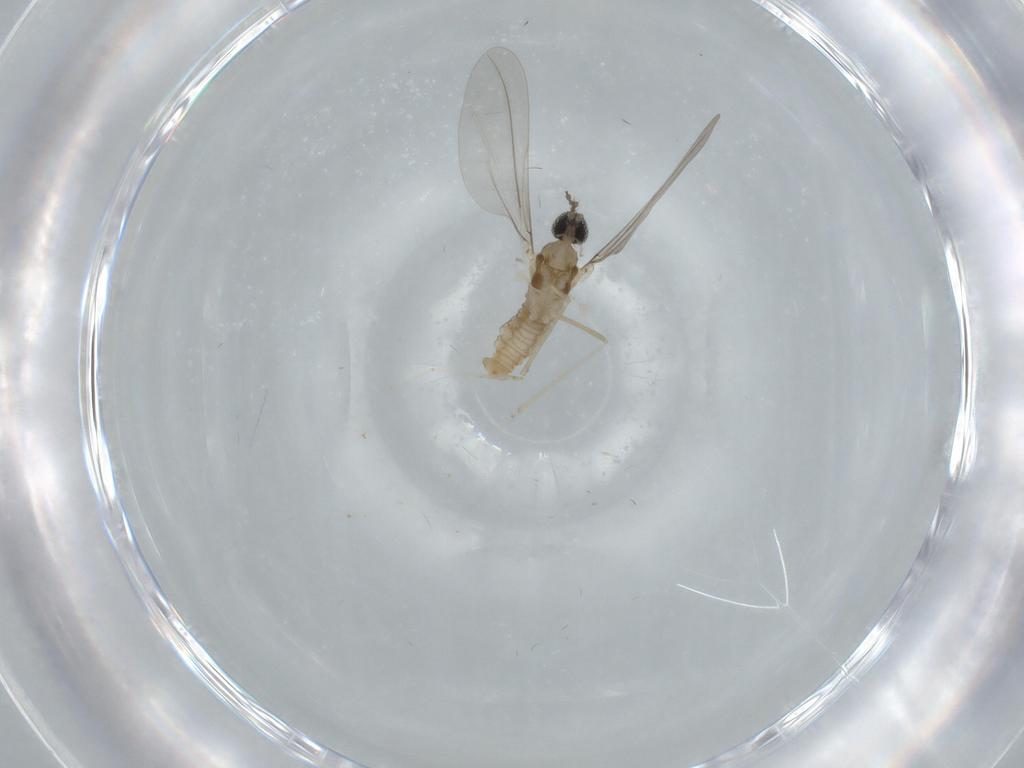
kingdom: Animalia
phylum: Arthropoda
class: Insecta
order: Diptera
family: Cecidomyiidae
